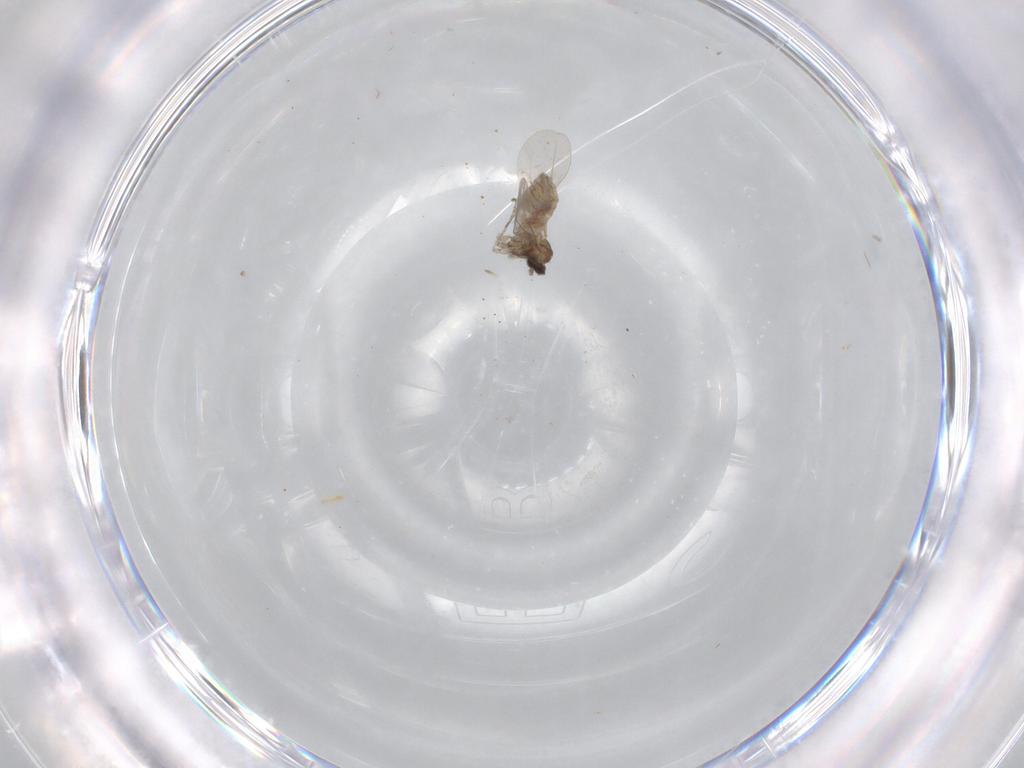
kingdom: Animalia
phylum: Arthropoda
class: Insecta
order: Diptera
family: Cecidomyiidae
